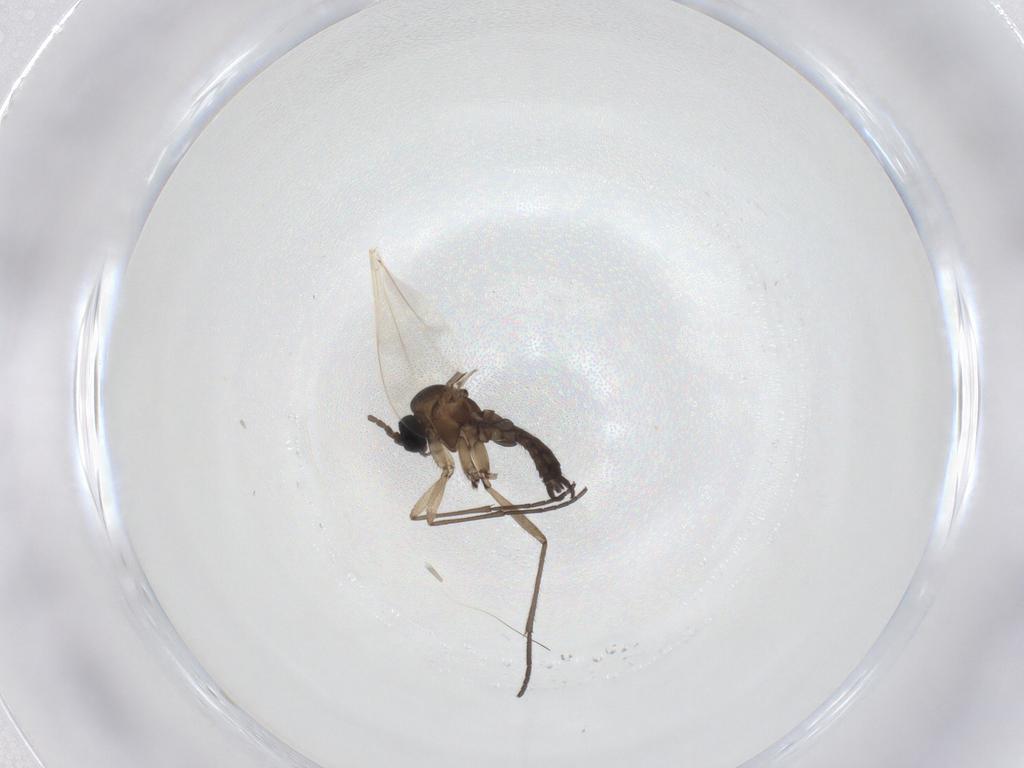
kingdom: Animalia
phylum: Arthropoda
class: Insecta
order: Diptera
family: Sciaridae
